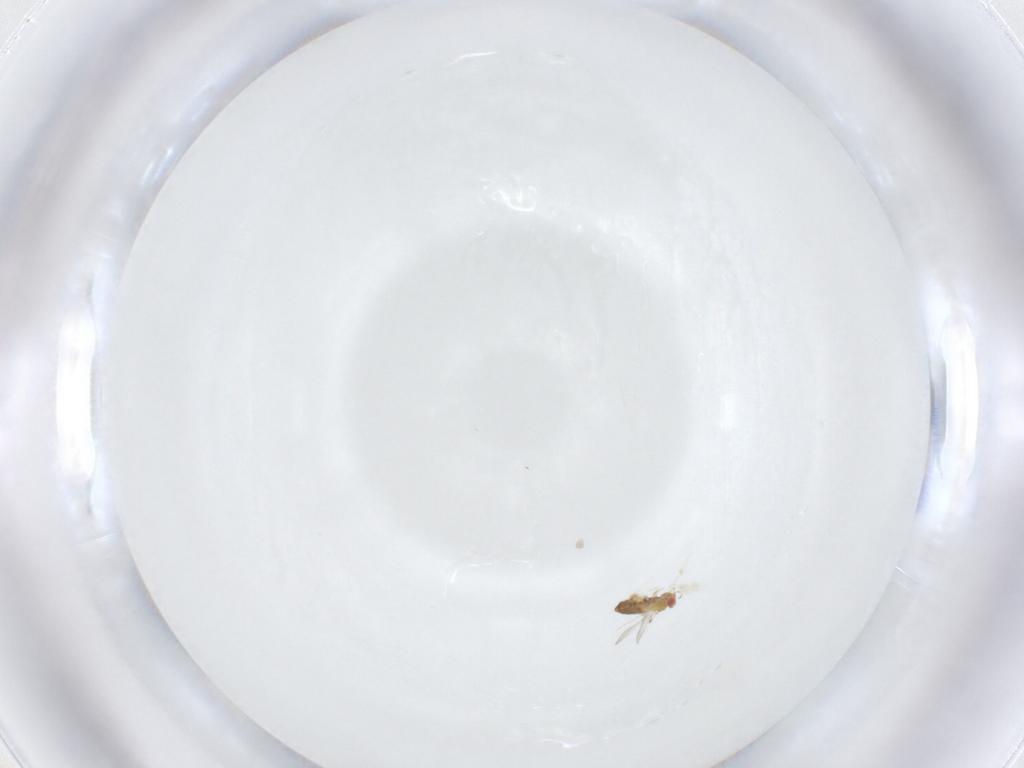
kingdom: Animalia
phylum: Arthropoda
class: Insecta
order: Hymenoptera
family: Trichogrammatidae
